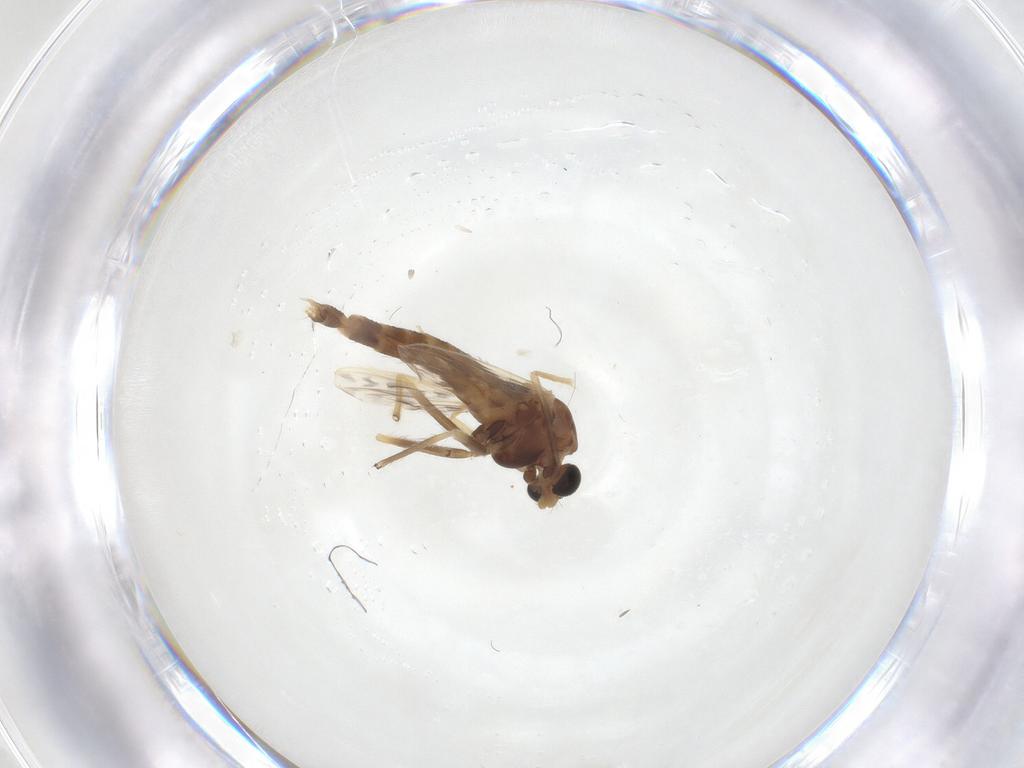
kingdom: Animalia
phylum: Arthropoda
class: Insecta
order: Diptera
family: Chironomidae
